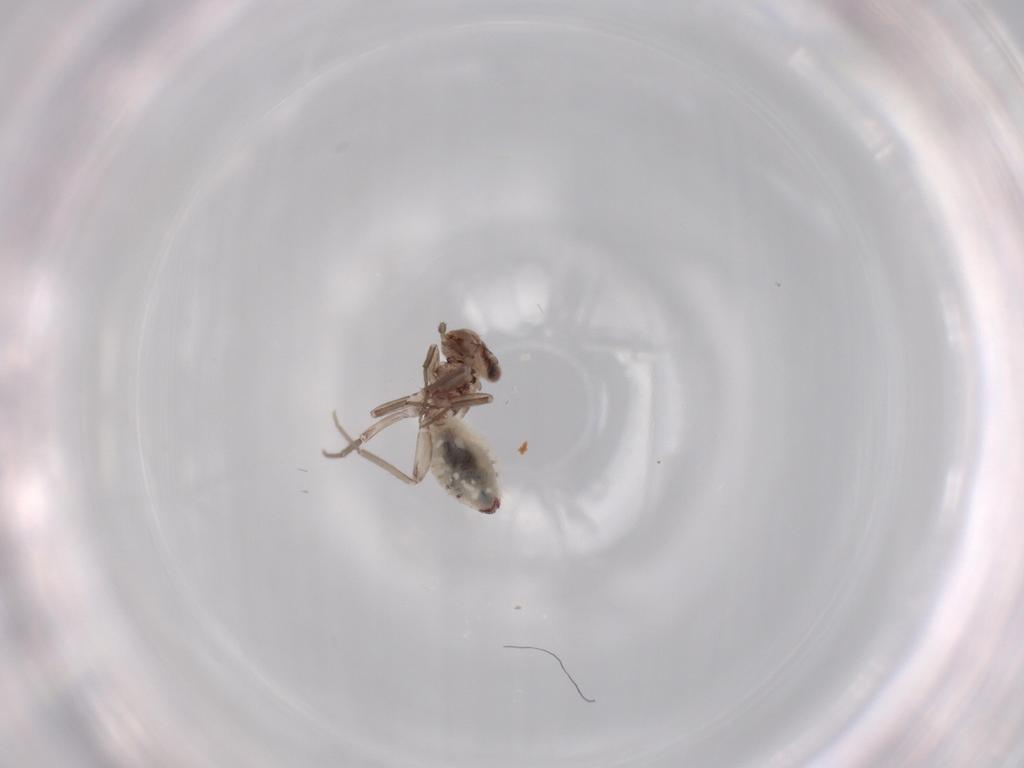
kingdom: Animalia
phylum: Arthropoda
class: Insecta
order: Psocodea
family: Lepidopsocidae
